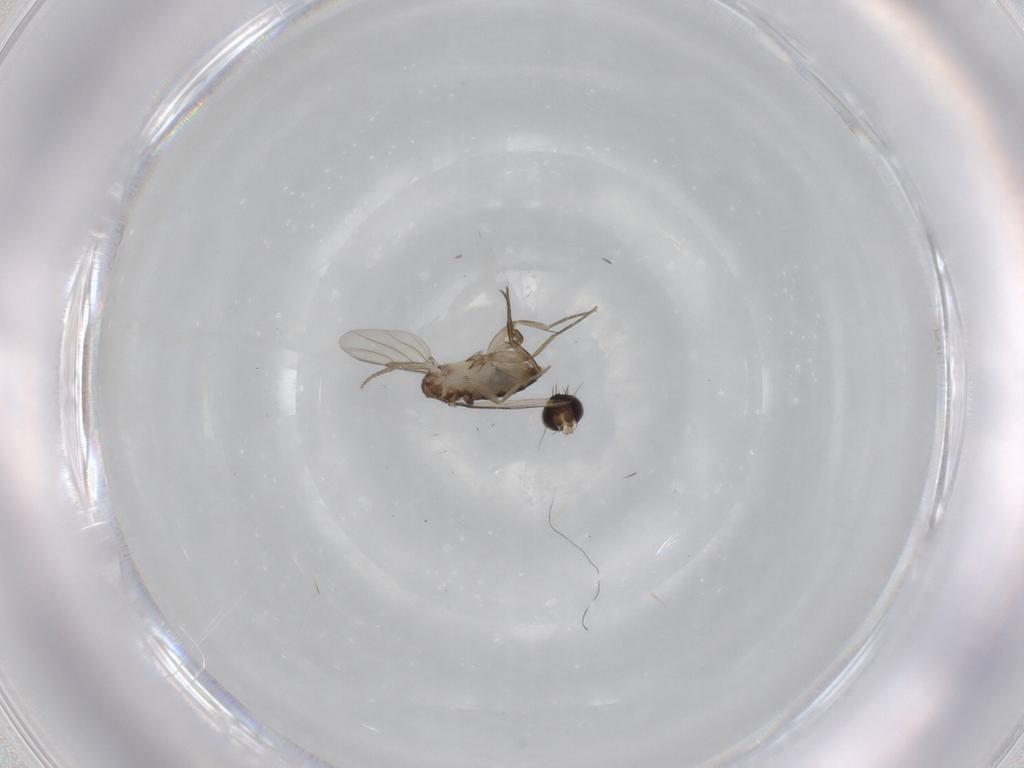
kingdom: Animalia
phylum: Arthropoda
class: Insecta
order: Diptera
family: Phoridae
